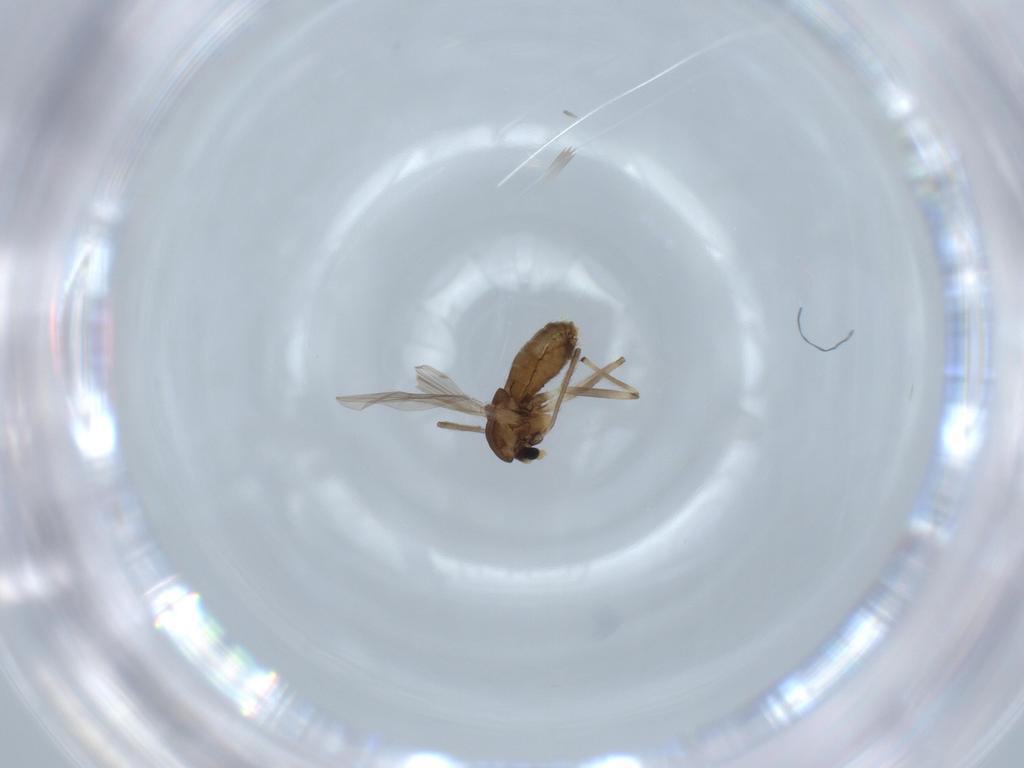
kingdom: Animalia
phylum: Arthropoda
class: Insecta
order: Diptera
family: Chironomidae
